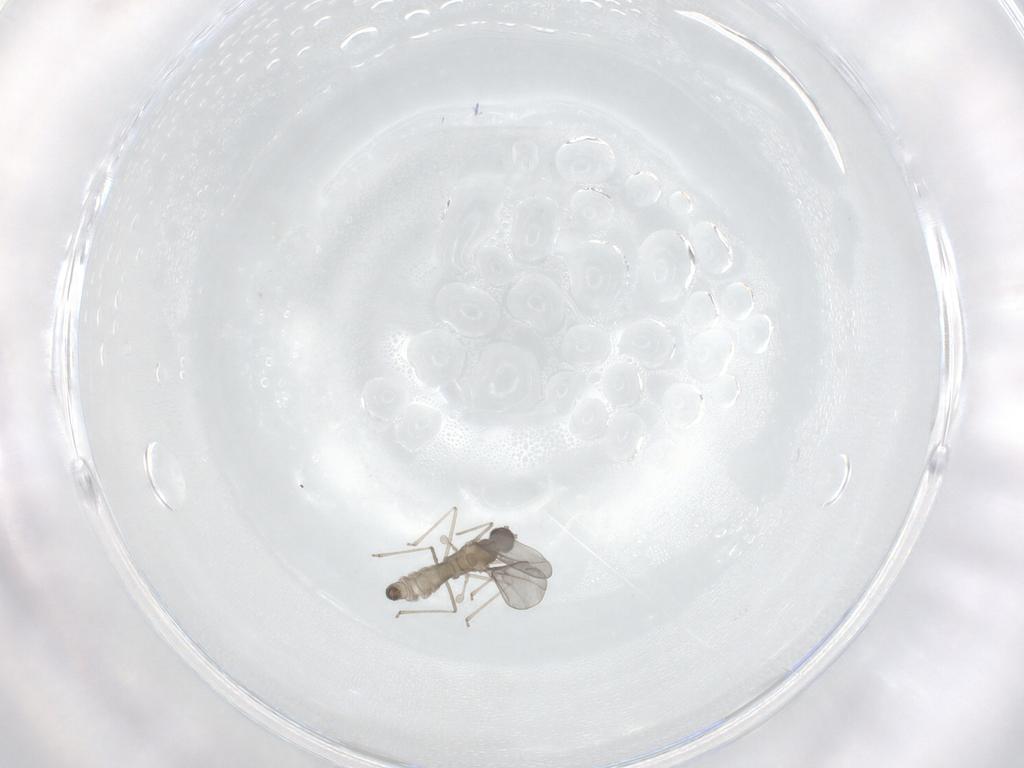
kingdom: Animalia
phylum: Arthropoda
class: Insecta
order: Diptera
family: Cecidomyiidae
